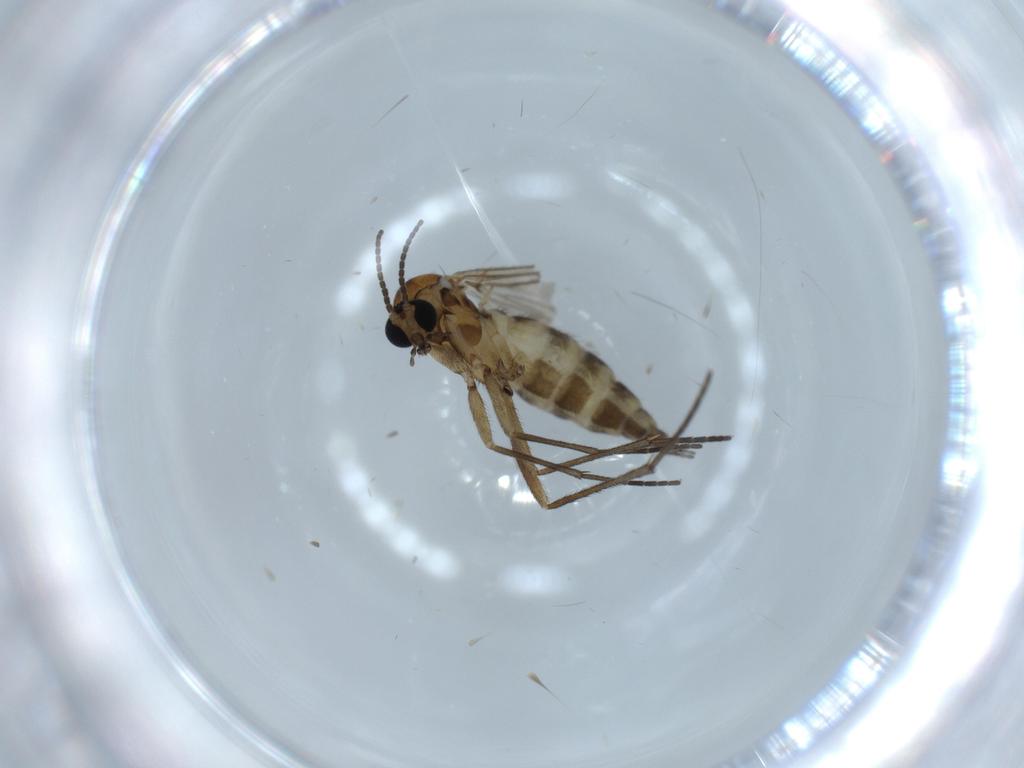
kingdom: Animalia
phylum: Arthropoda
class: Insecta
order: Diptera
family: Sciaridae
